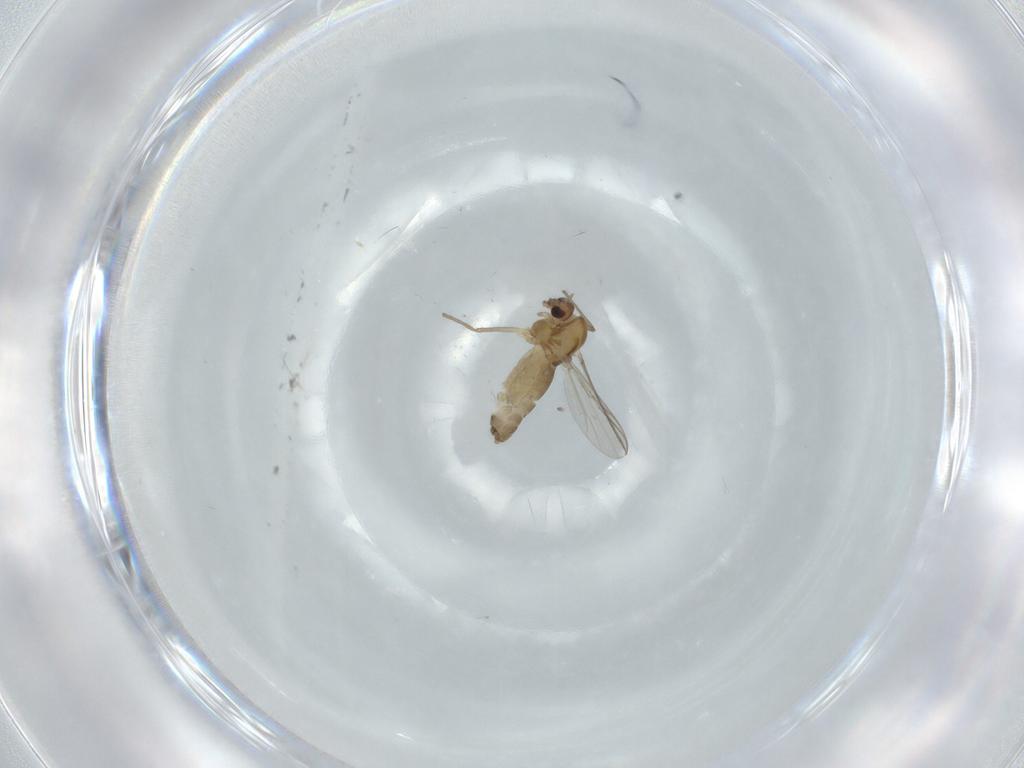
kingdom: Animalia
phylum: Arthropoda
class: Insecta
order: Diptera
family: Chironomidae
